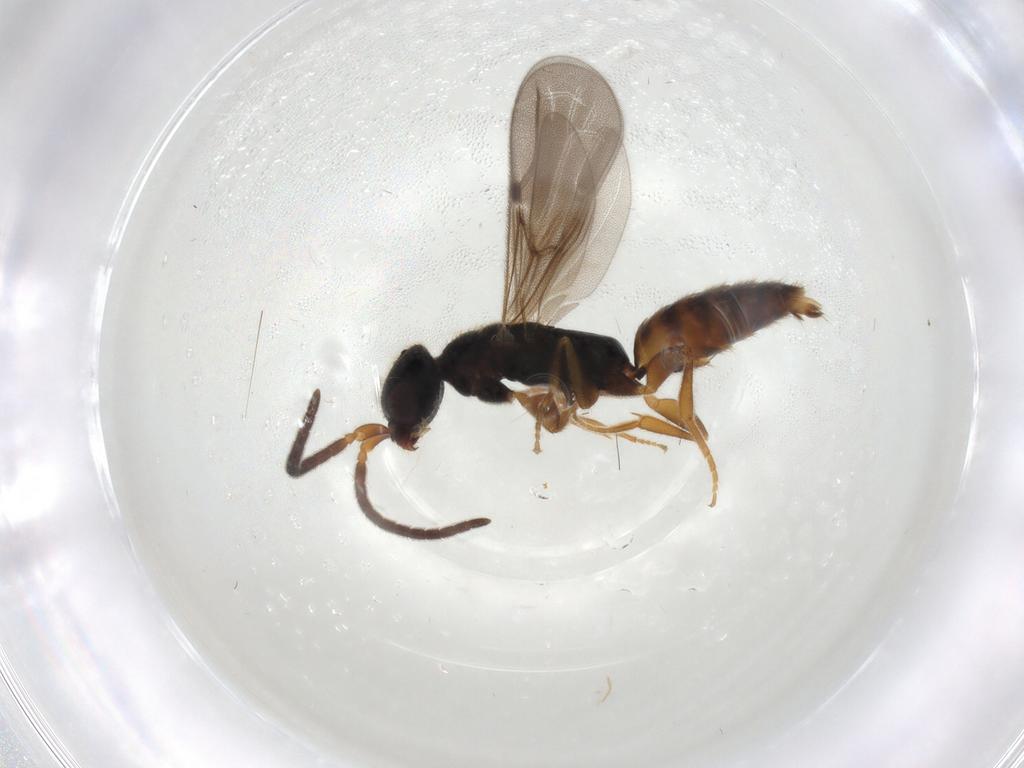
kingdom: Animalia
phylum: Arthropoda
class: Insecta
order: Hymenoptera
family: Bethylidae
